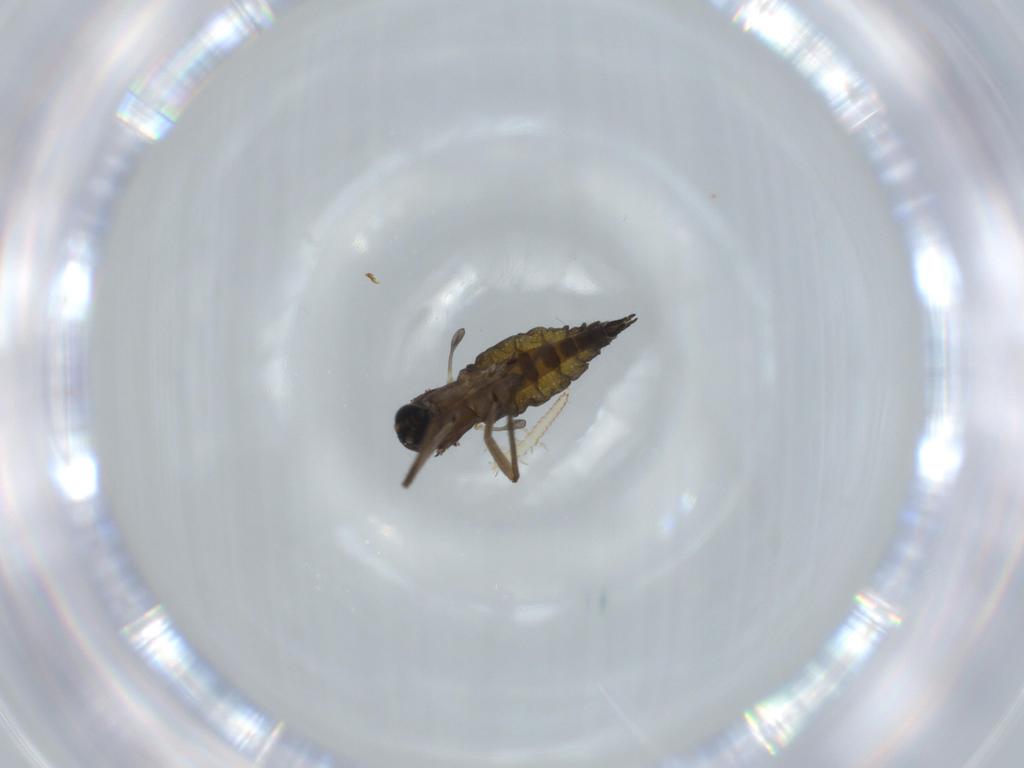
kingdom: Animalia
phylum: Arthropoda
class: Insecta
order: Diptera
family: Sciaridae
